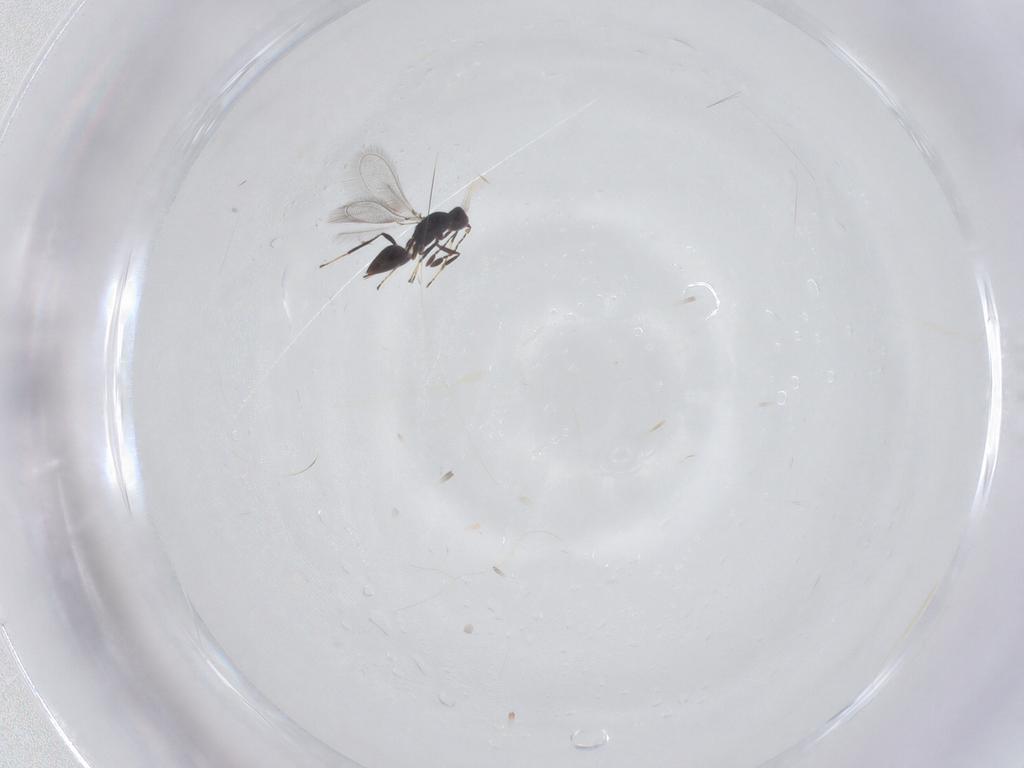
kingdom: Animalia
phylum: Arthropoda
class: Insecta
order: Hymenoptera
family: Mymaridae
